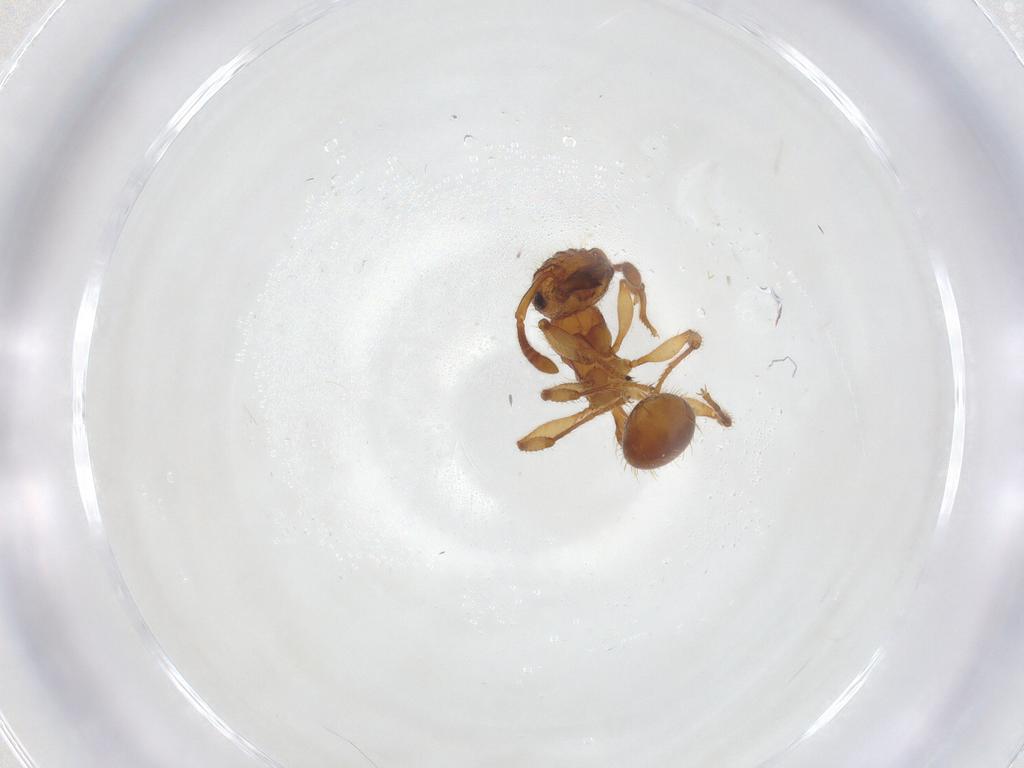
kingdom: Animalia
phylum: Arthropoda
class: Insecta
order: Hymenoptera
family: Formicidae
